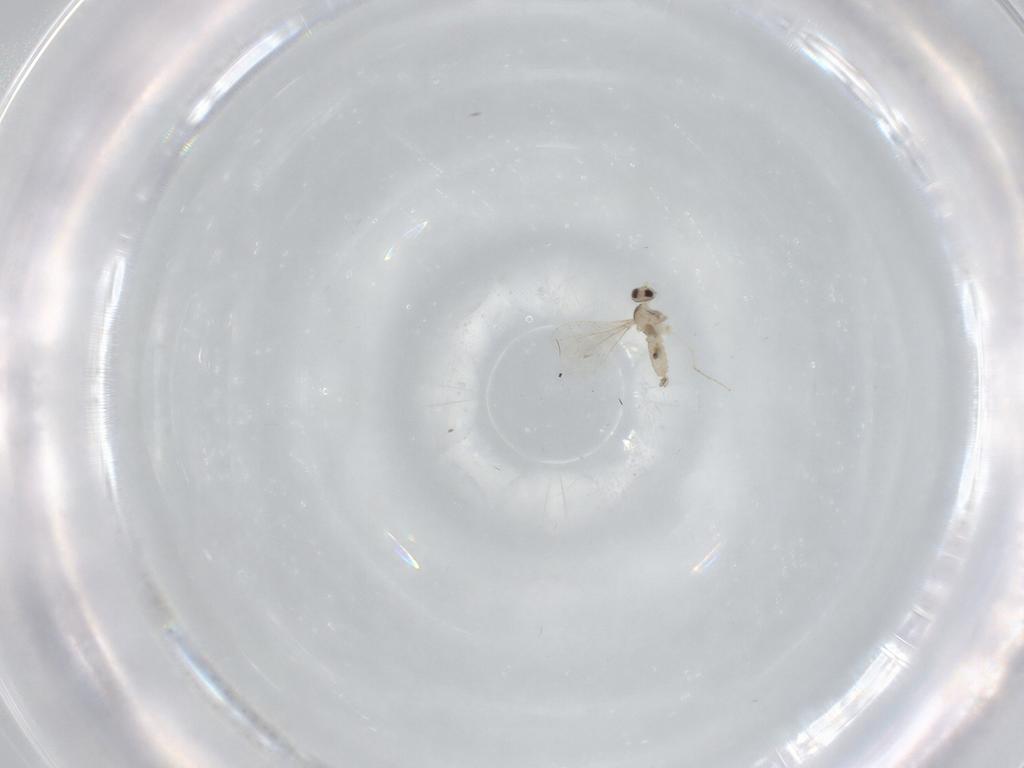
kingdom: Animalia
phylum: Arthropoda
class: Insecta
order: Diptera
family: Cecidomyiidae
